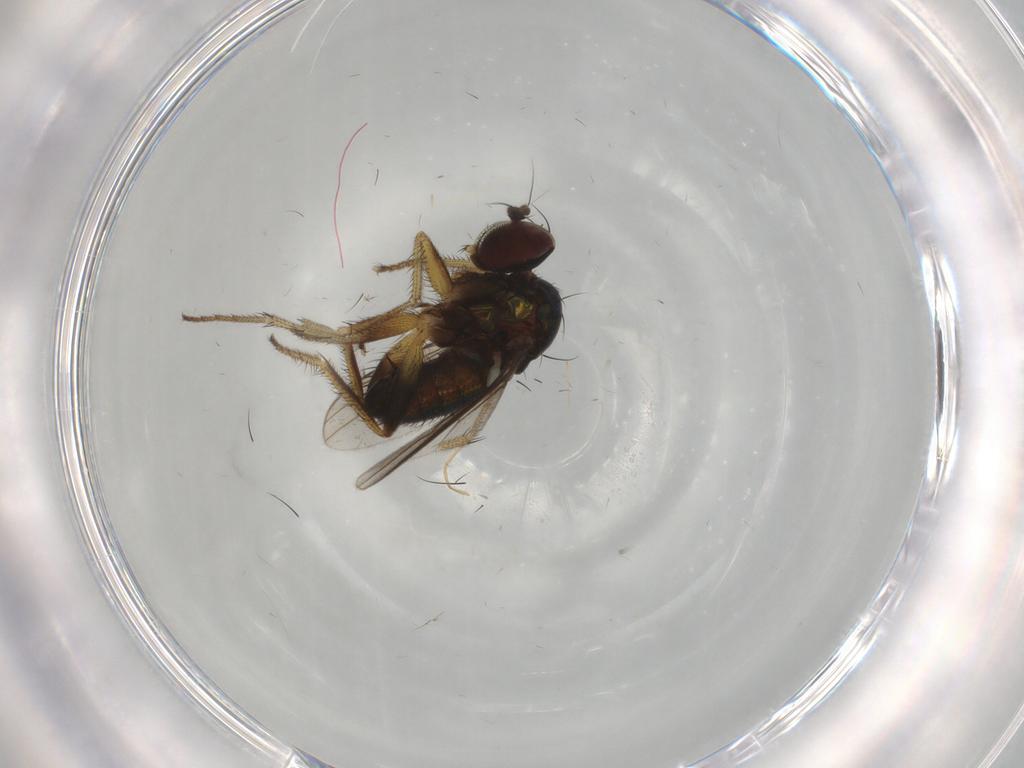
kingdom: Animalia
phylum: Arthropoda
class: Insecta
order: Diptera
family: Dolichopodidae
